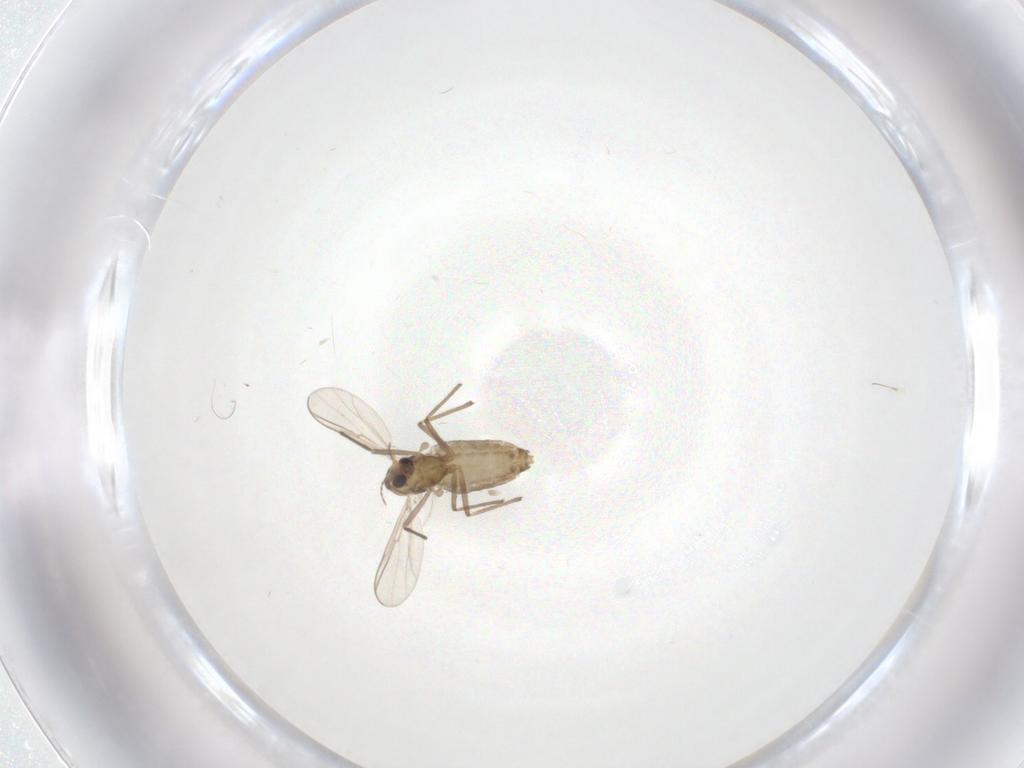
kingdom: Animalia
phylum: Arthropoda
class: Insecta
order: Diptera
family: Chironomidae
